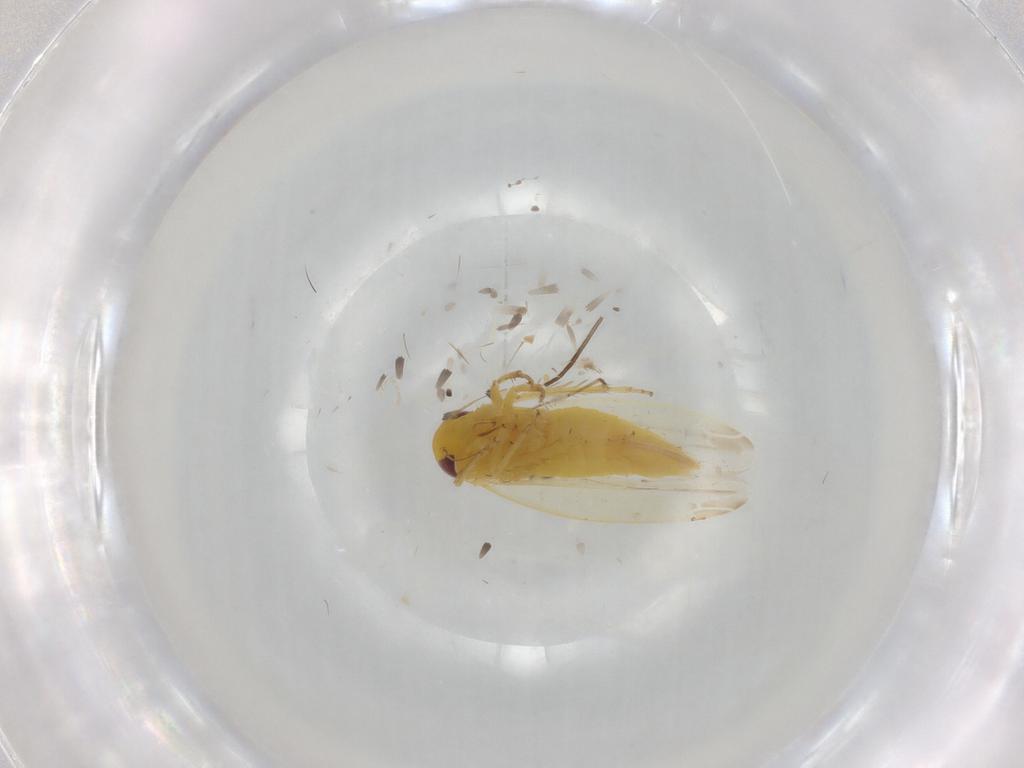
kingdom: Animalia
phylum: Arthropoda
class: Insecta
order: Hemiptera
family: Cicadellidae
